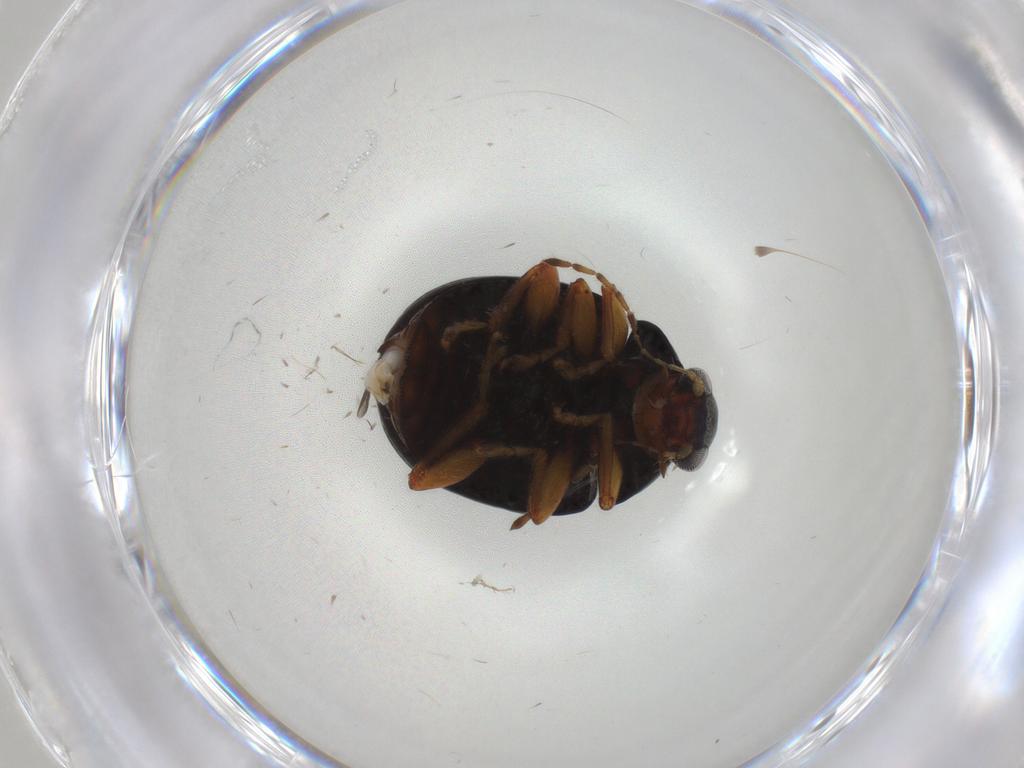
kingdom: Animalia
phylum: Arthropoda
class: Insecta
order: Coleoptera
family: Chrysomelidae
